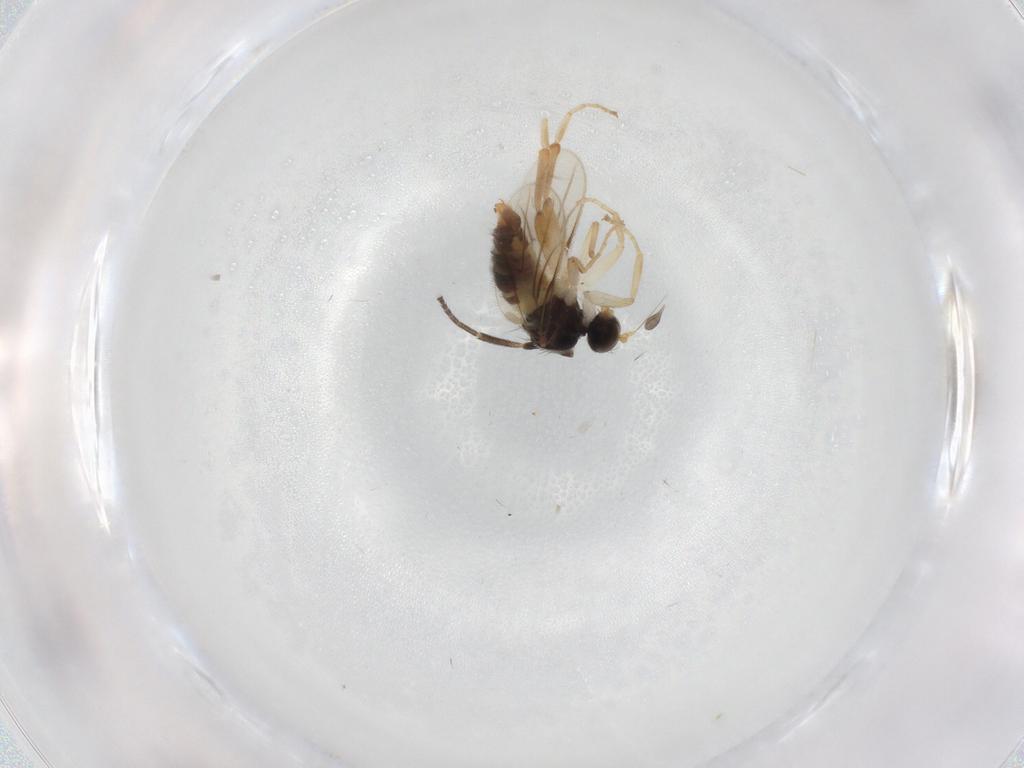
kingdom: Animalia
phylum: Arthropoda
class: Insecta
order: Diptera
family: Hybotidae
